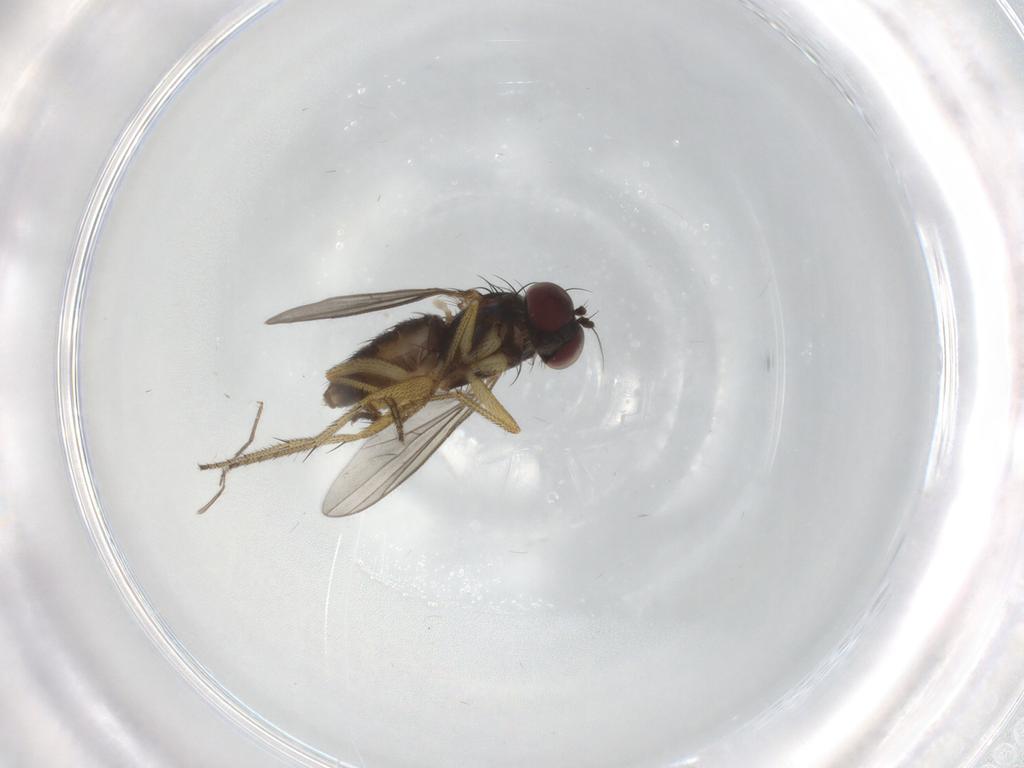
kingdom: Animalia
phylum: Arthropoda
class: Insecta
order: Diptera
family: Chironomidae
